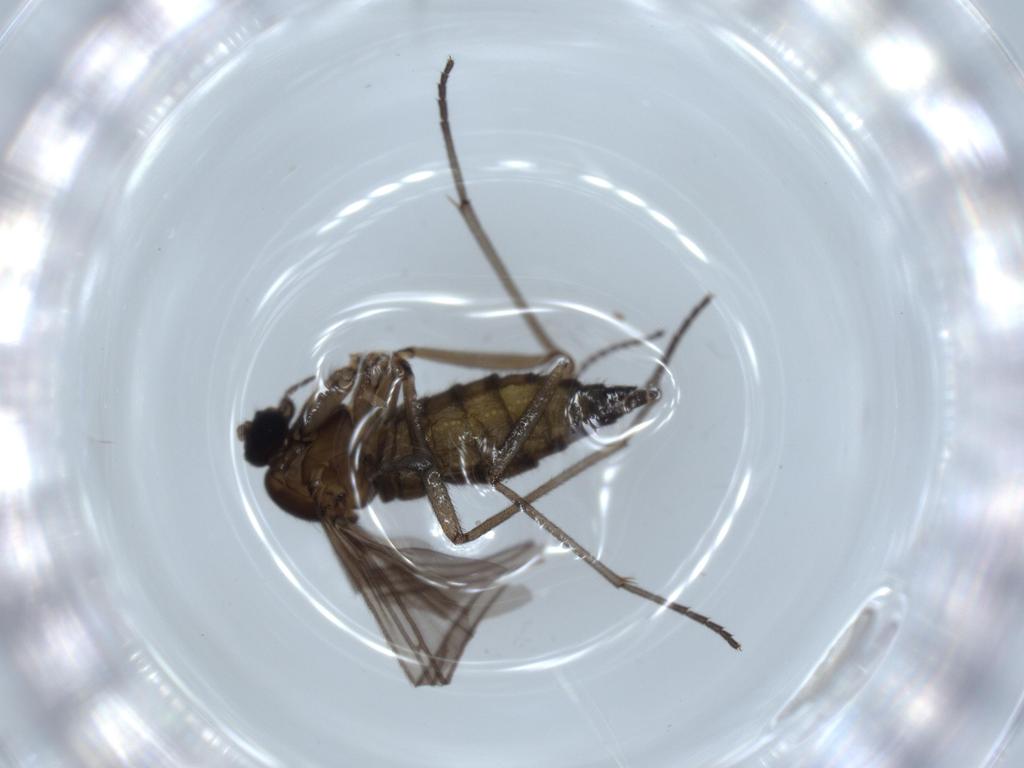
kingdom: Animalia
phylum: Arthropoda
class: Insecta
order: Diptera
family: Sciaridae
